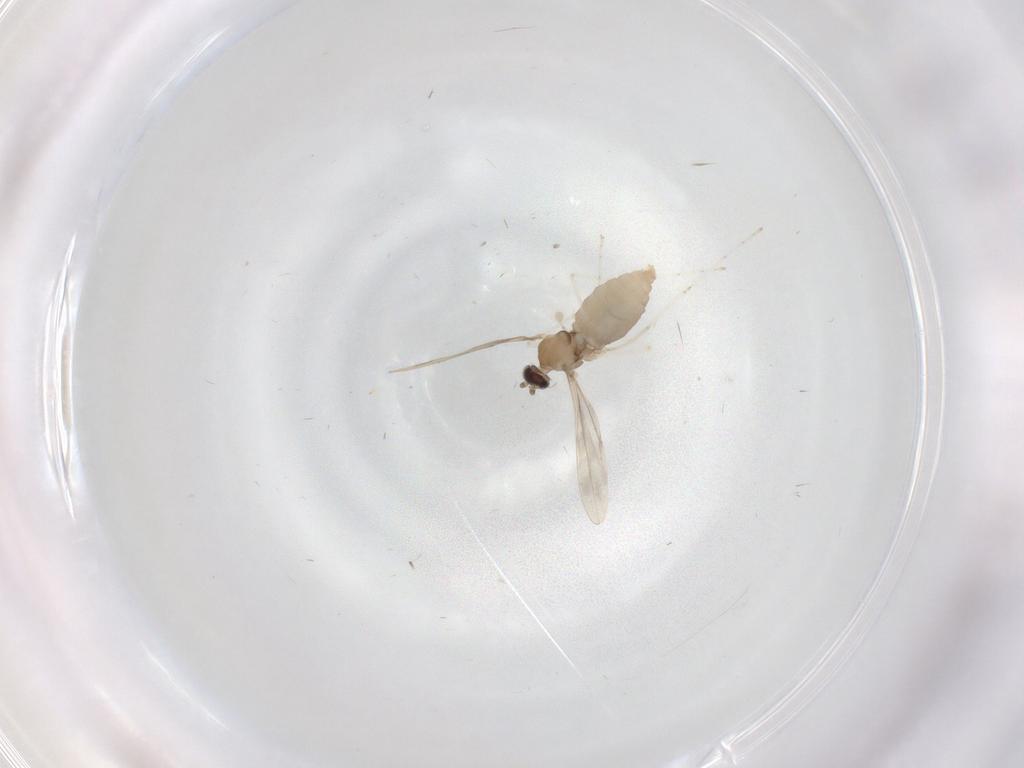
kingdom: Animalia
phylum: Arthropoda
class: Insecta
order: Diptera
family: Cecidomyiidae
